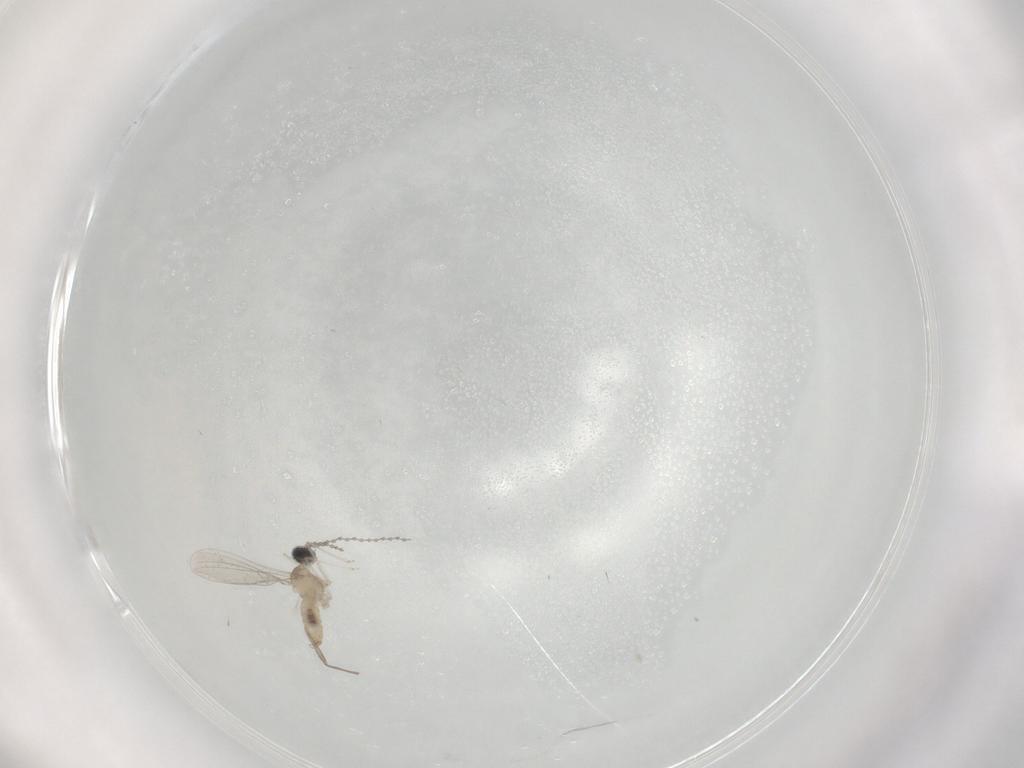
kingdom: Animalia
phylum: Arthropoda
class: Insecta
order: Diptera
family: Cecidomyiidae
